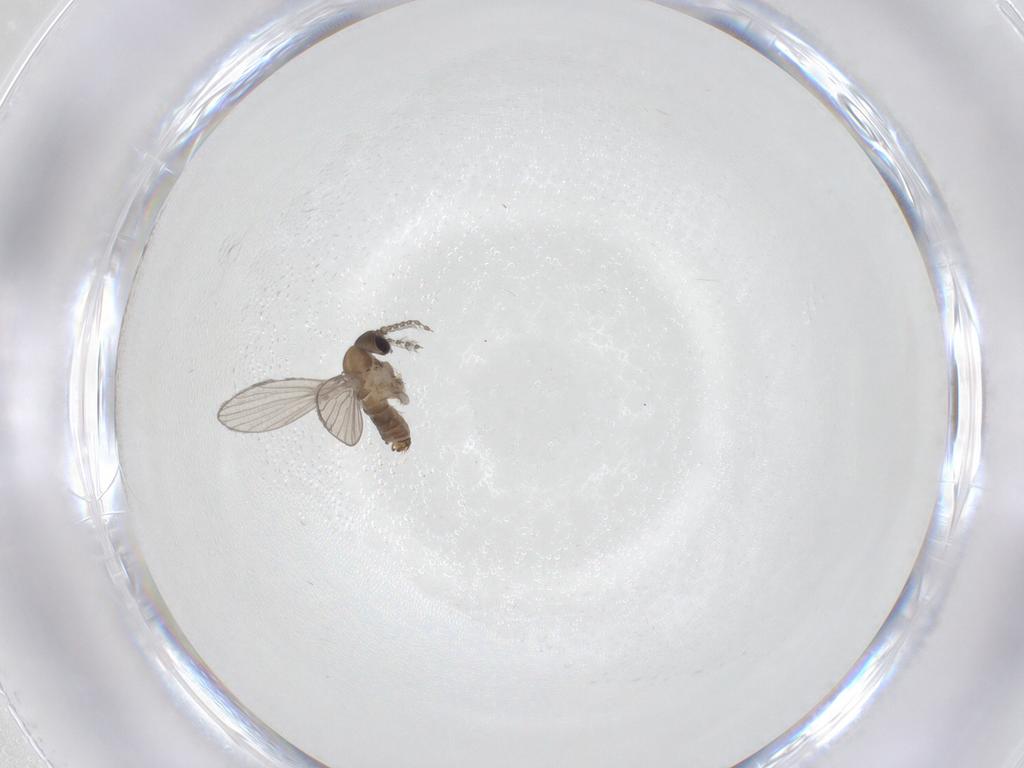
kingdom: Animalia
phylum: Arthropoda
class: Insecta
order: Diptera
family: Psychodidae
